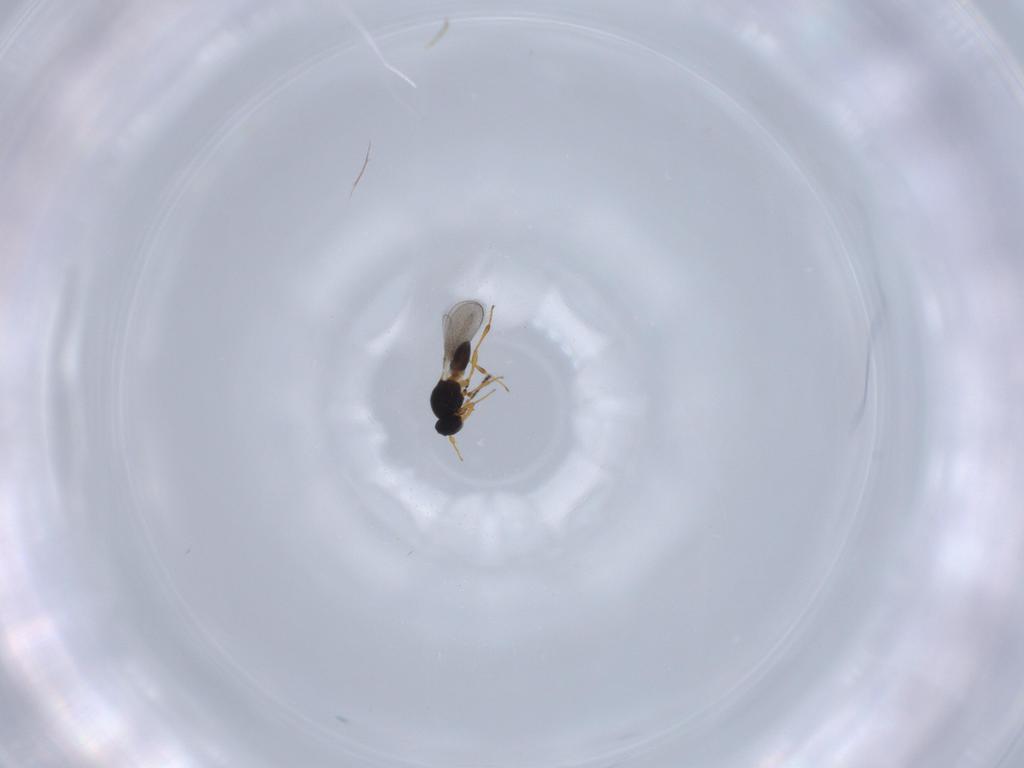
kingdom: Animalia
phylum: Arthropoda
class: Insecta
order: Hymenoptera
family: Platygastridae
